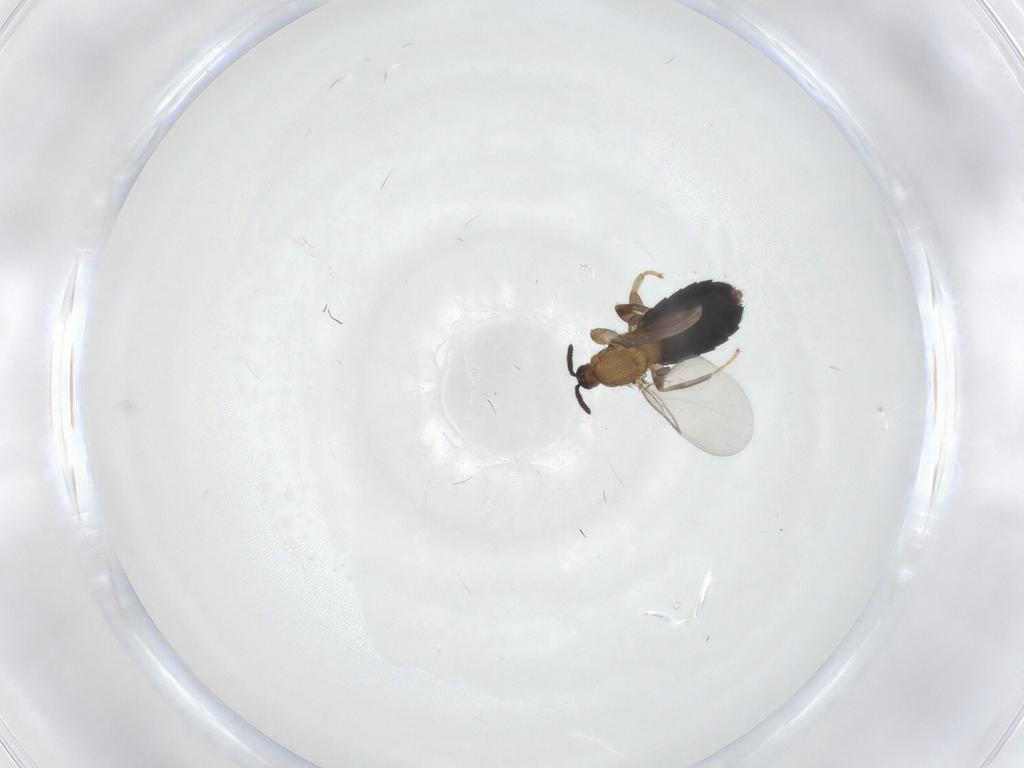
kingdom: Animalia
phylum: Arthropoda
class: Insecta
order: Diptera
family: Scatopsidae
